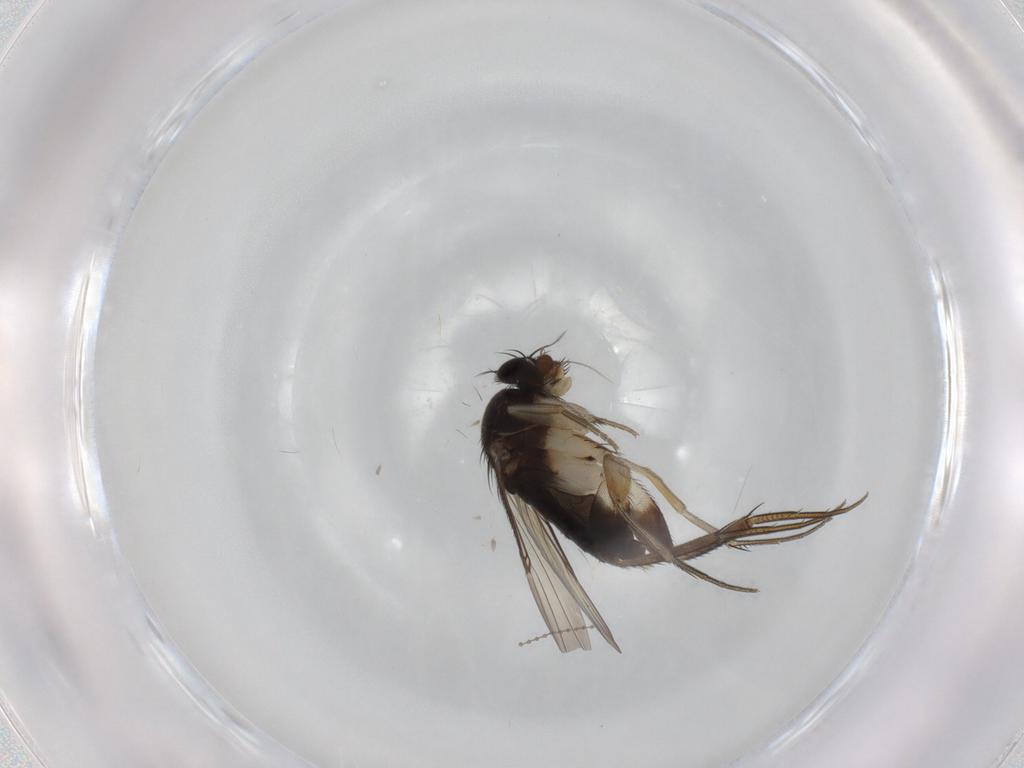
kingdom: Animalia
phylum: Arthropoda
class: Insecta
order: Diptera
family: Phoridae
